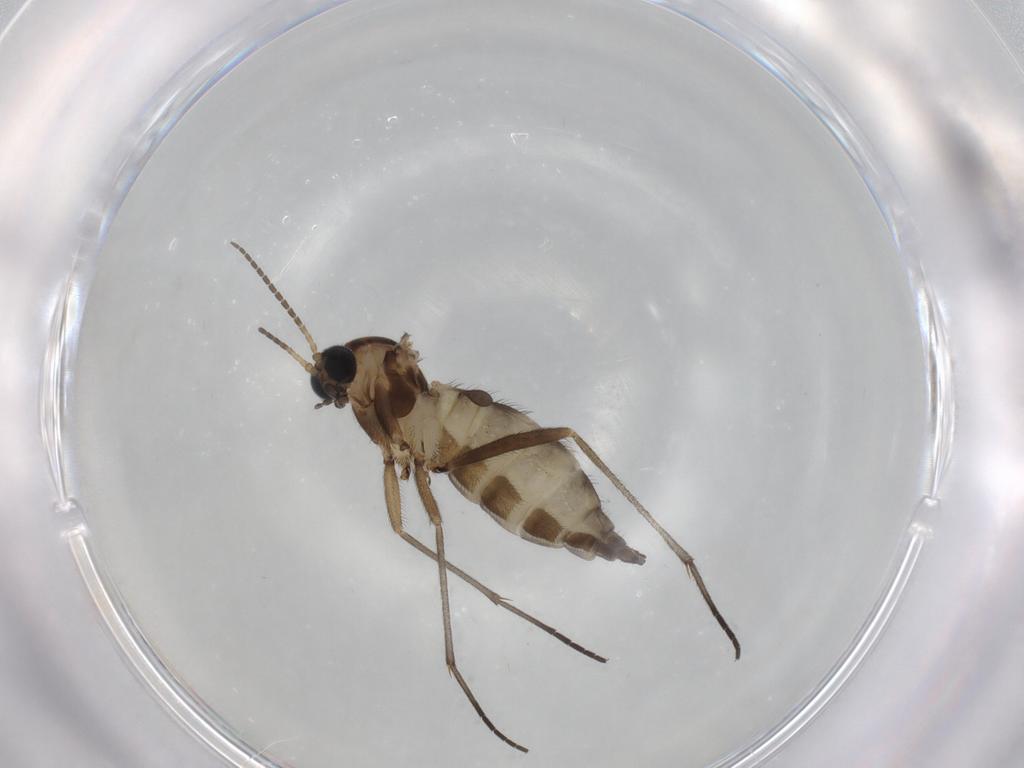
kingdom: Animalia
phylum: Arthropoda
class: Insecta
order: Diptera
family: Sciaridae
